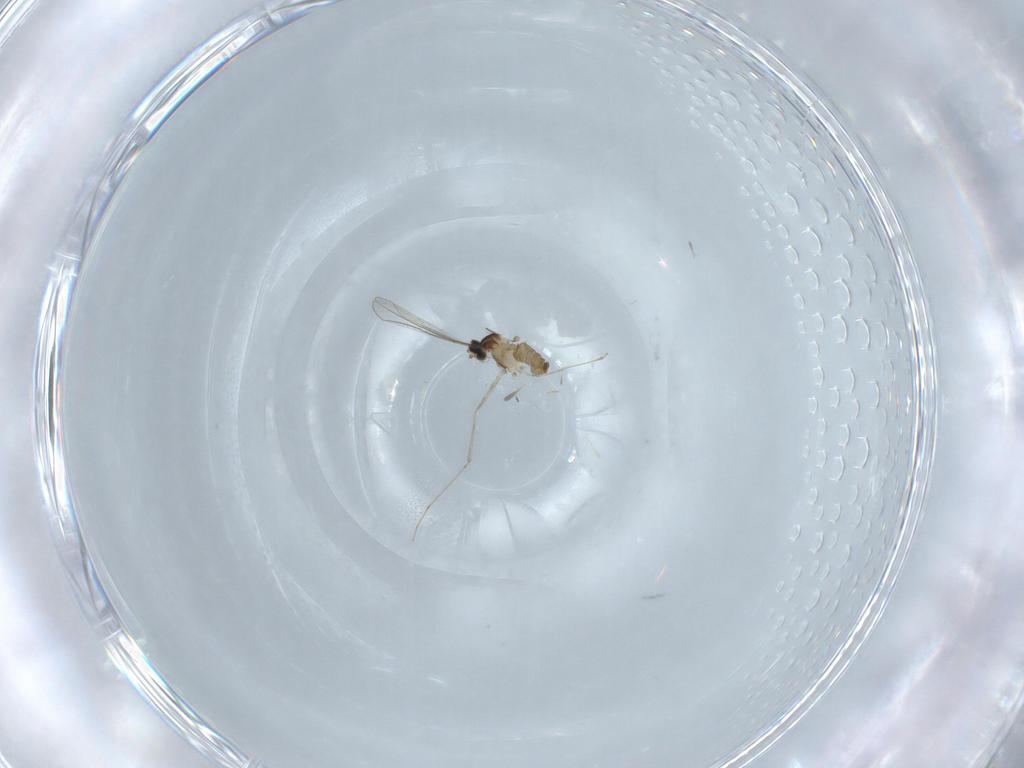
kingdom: Animalia
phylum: Arthropoda
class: Insecta
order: Diptera
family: Cecidomyiidae
